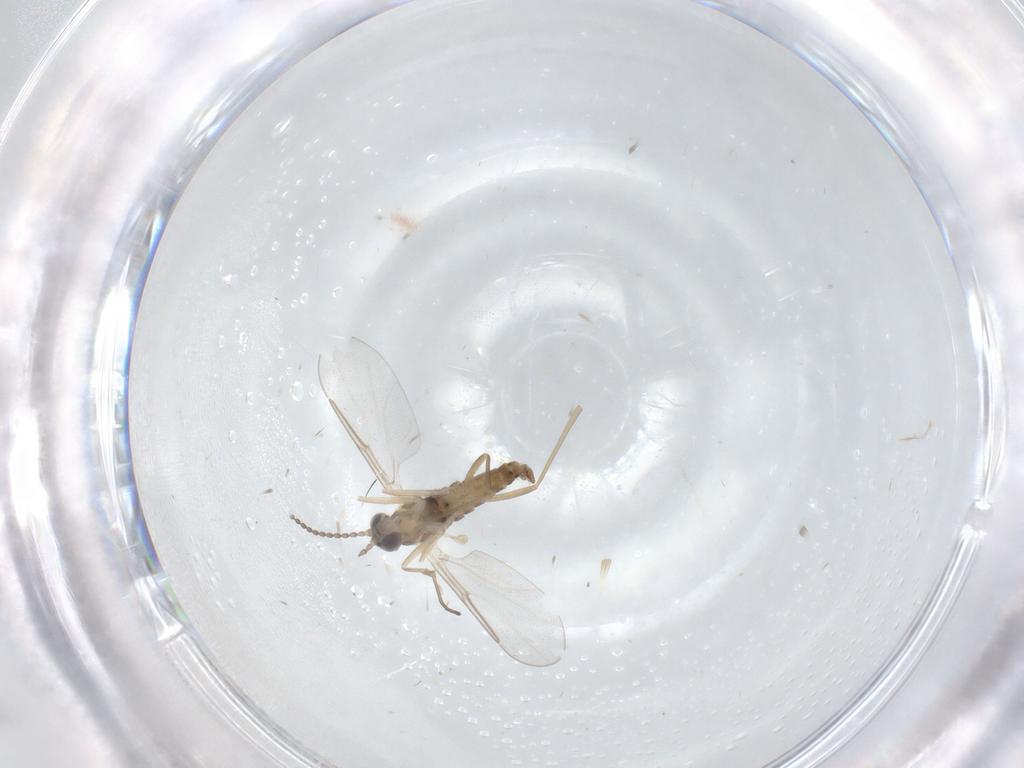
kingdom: Animalia
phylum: Arthropoda
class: Insecta
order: Diptera
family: Cecidomyiidae
